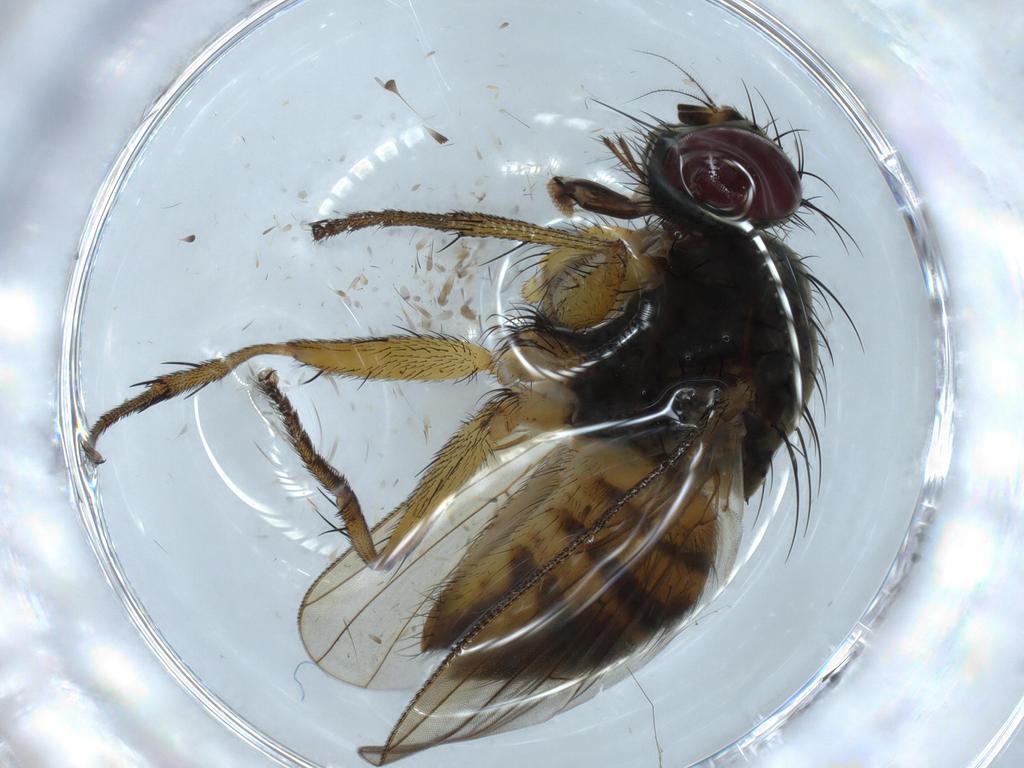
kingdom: Animalia
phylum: Arthropoda
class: Insecta
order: Diptera
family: Muscidae
